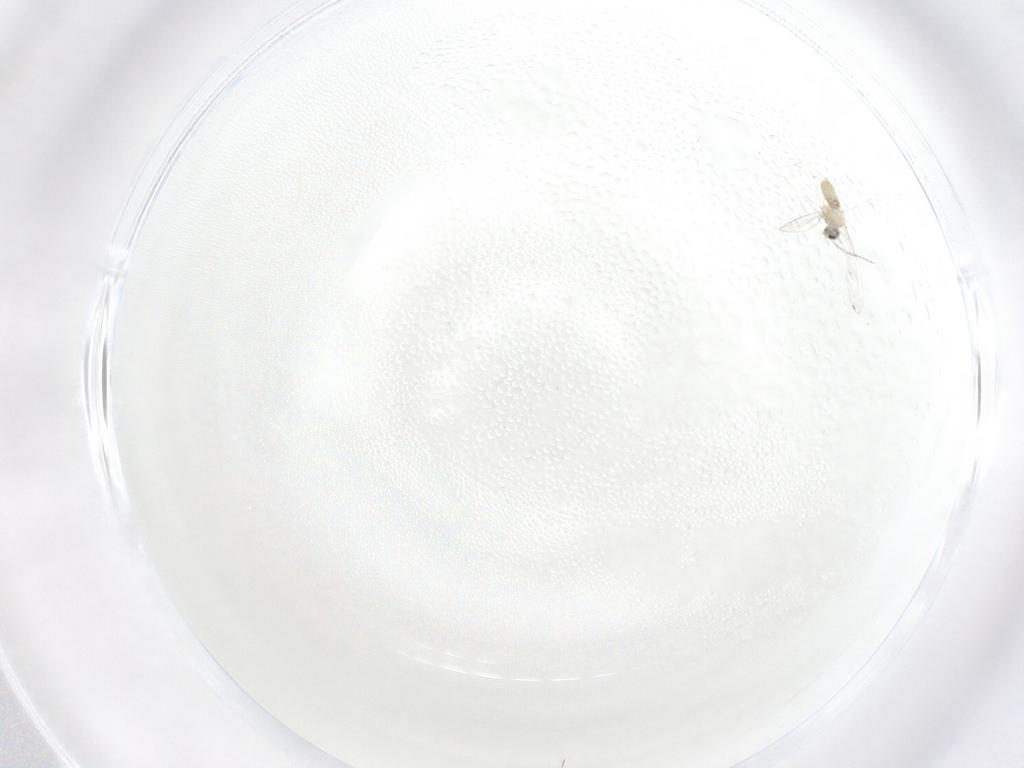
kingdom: Animalia
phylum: Arthropoda
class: Insecta
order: Diptera
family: Cecidomyiidae
